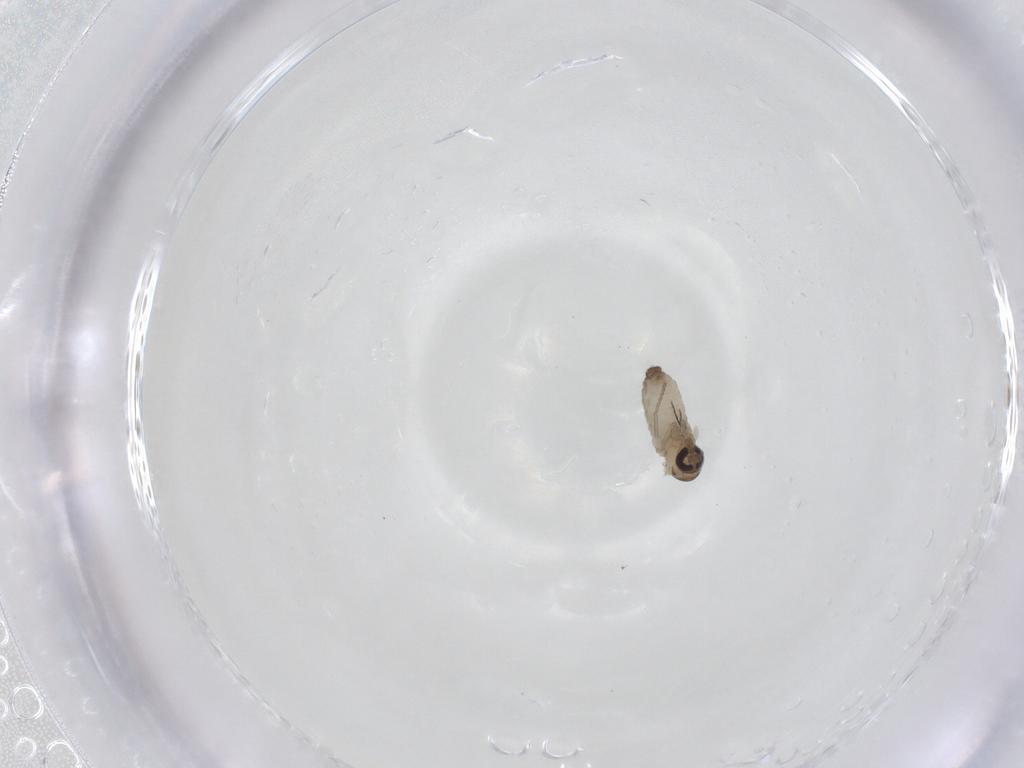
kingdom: Animalia
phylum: Arthropoda
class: Insecta
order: Diptera
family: Psychodidae
